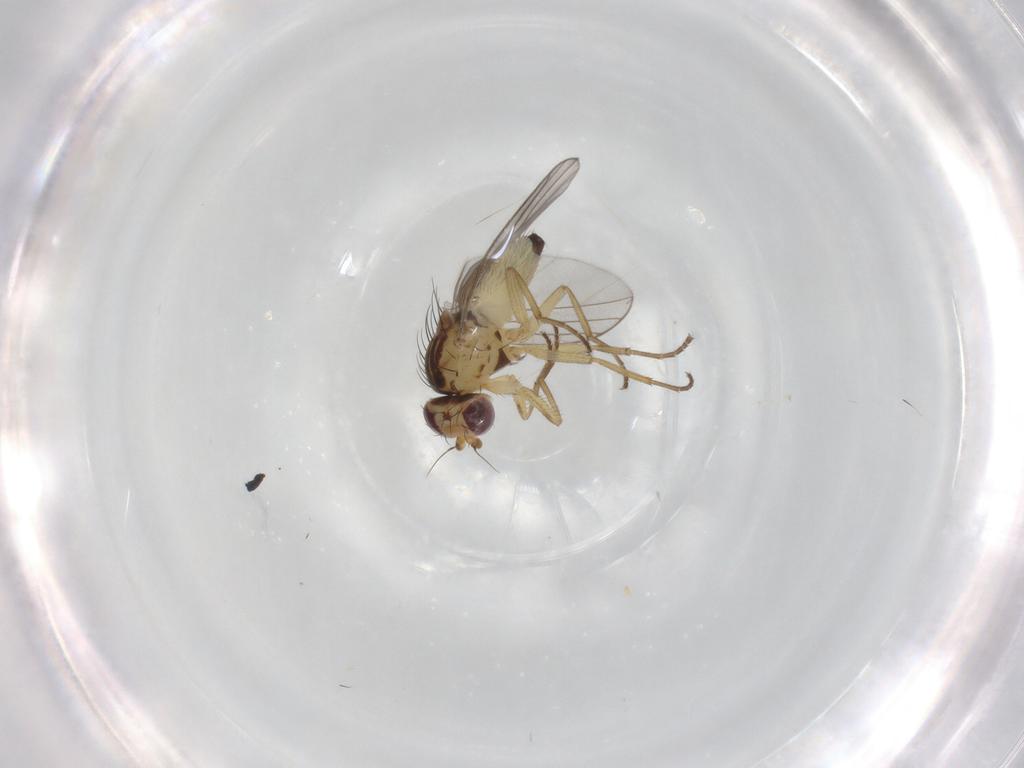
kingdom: Animalia
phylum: Arthropoda
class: Insecta
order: Diptera
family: Agromyzidae
